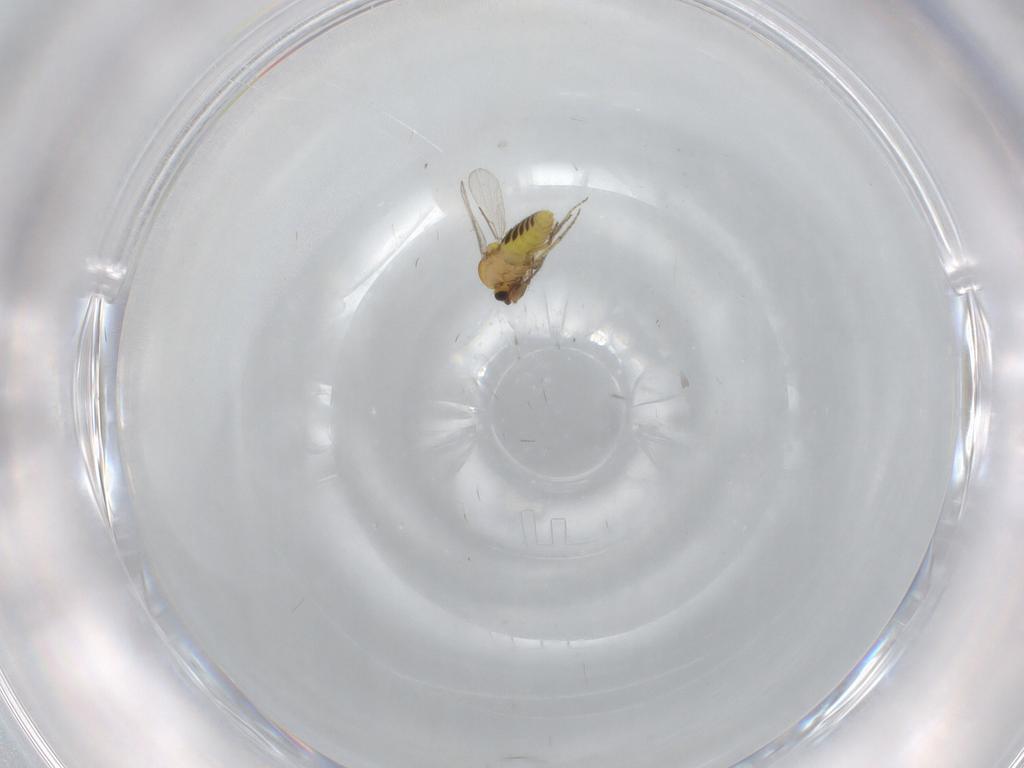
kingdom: Animalia
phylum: Arthropoda
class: Insecta
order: Diptera
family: Ceratopogonidae
